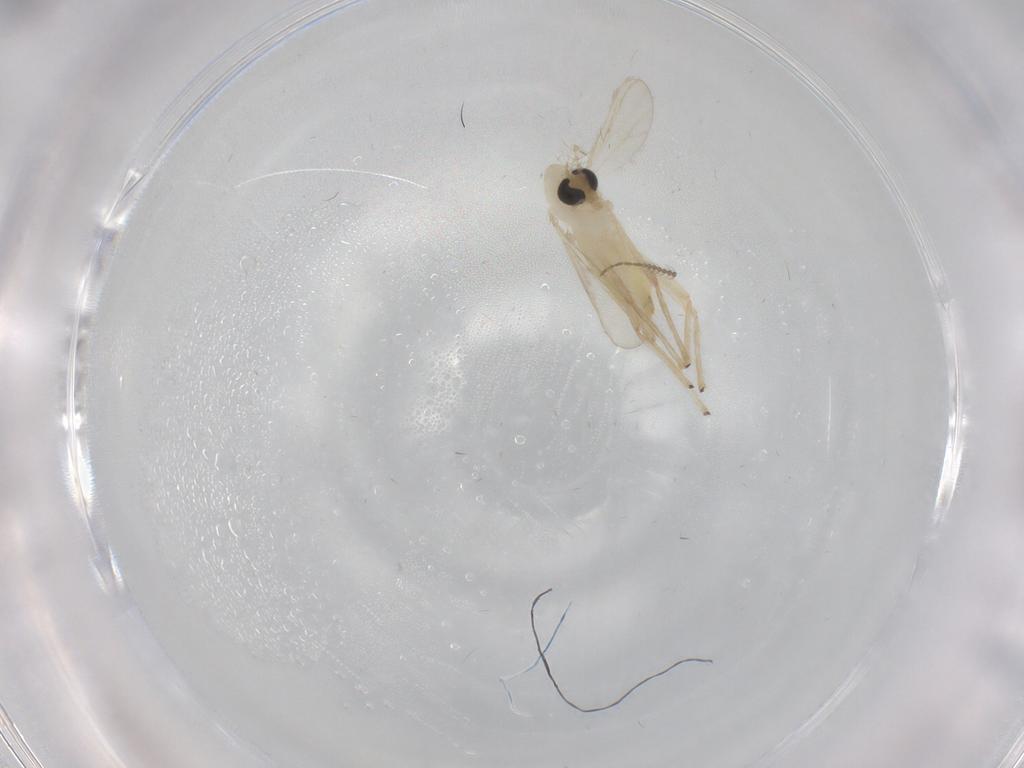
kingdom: Animalia
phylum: Arthropoda
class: Insecta
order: Diptera
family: Chironomidae
